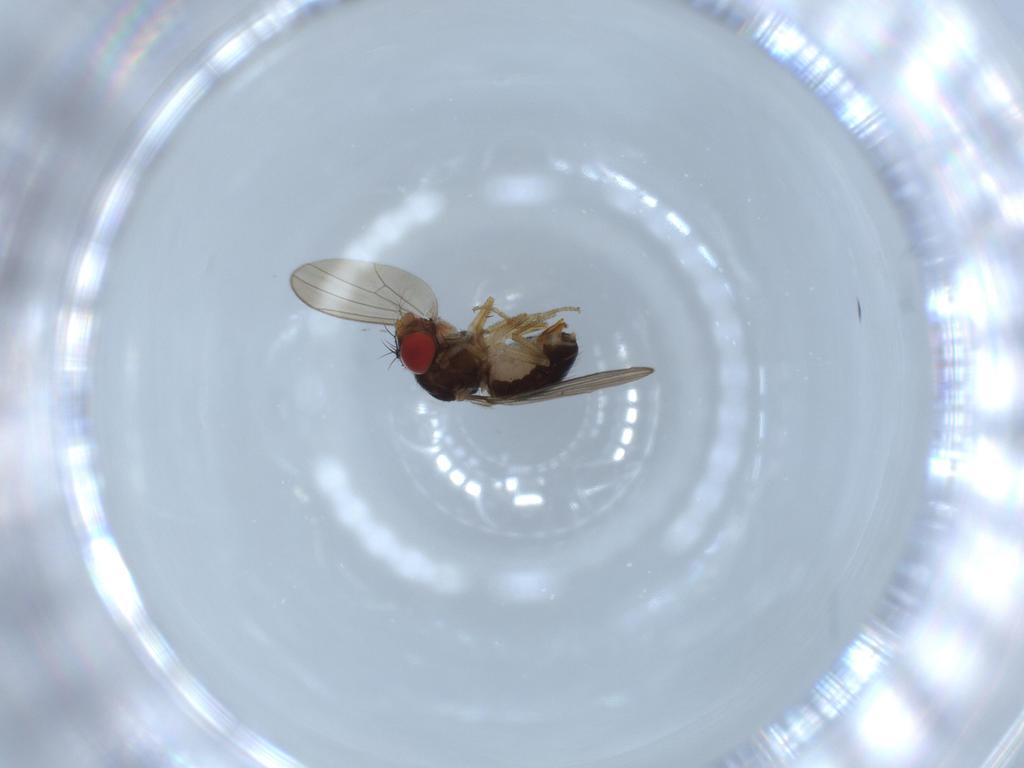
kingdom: Animalia
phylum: Arthropoda
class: Insecta
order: Diptera
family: Drosophilidae
